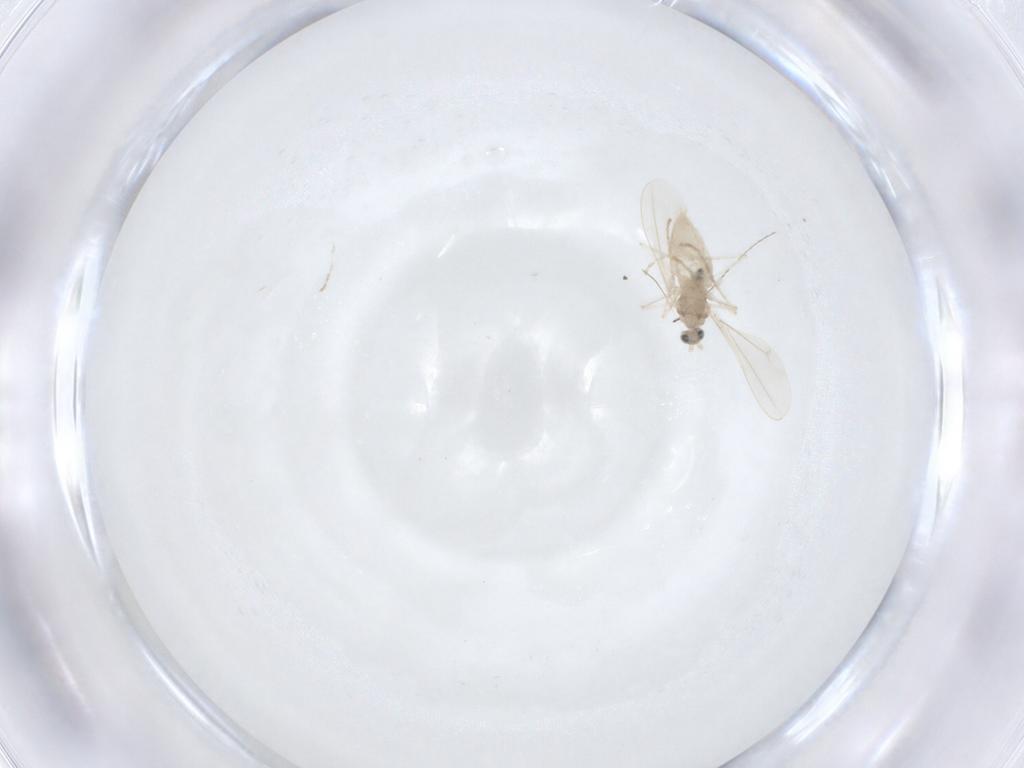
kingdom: Animalia
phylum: Arthropoda
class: Insecta
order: Diptera
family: Cecidomyiidae
